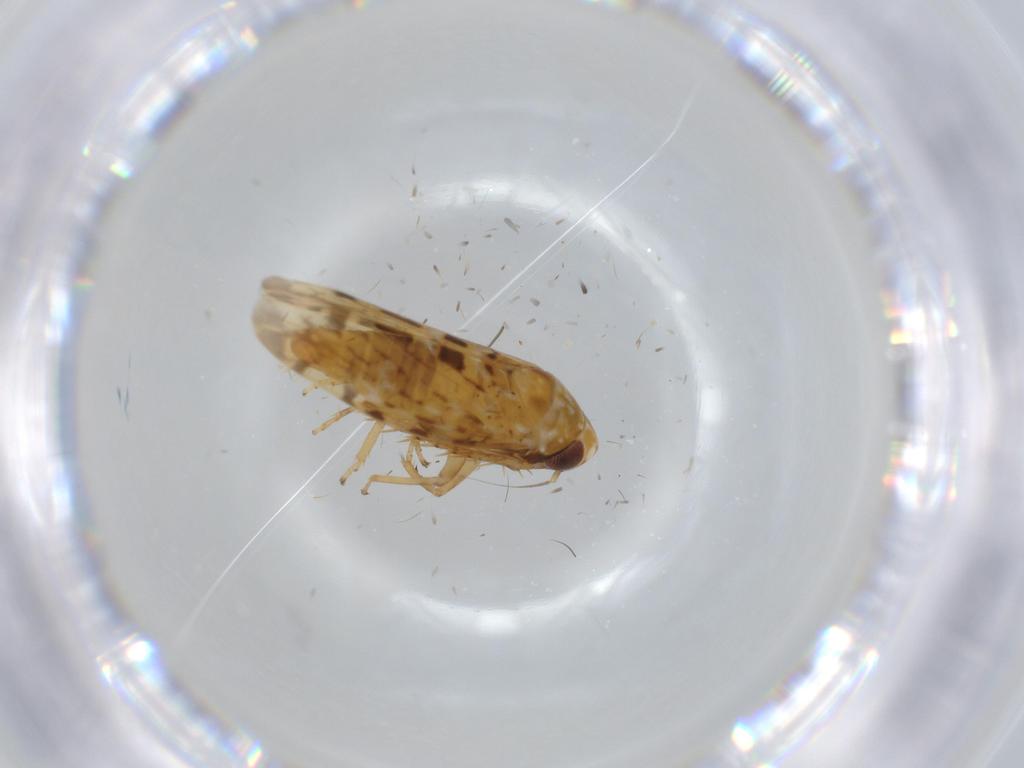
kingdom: Animalia
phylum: Arthropoda
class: Insecta
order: Hemiptera
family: Cicadellidae
